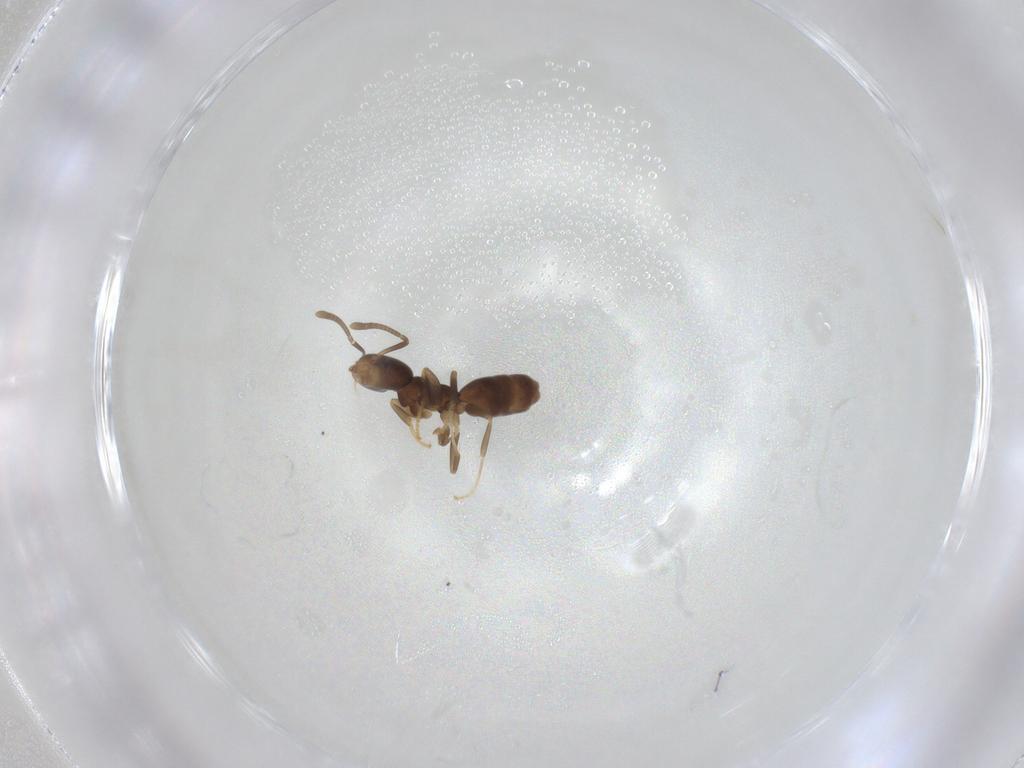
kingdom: Animalia
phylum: Arthropoda
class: Insecta
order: Hymenoptera
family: Formicidae
